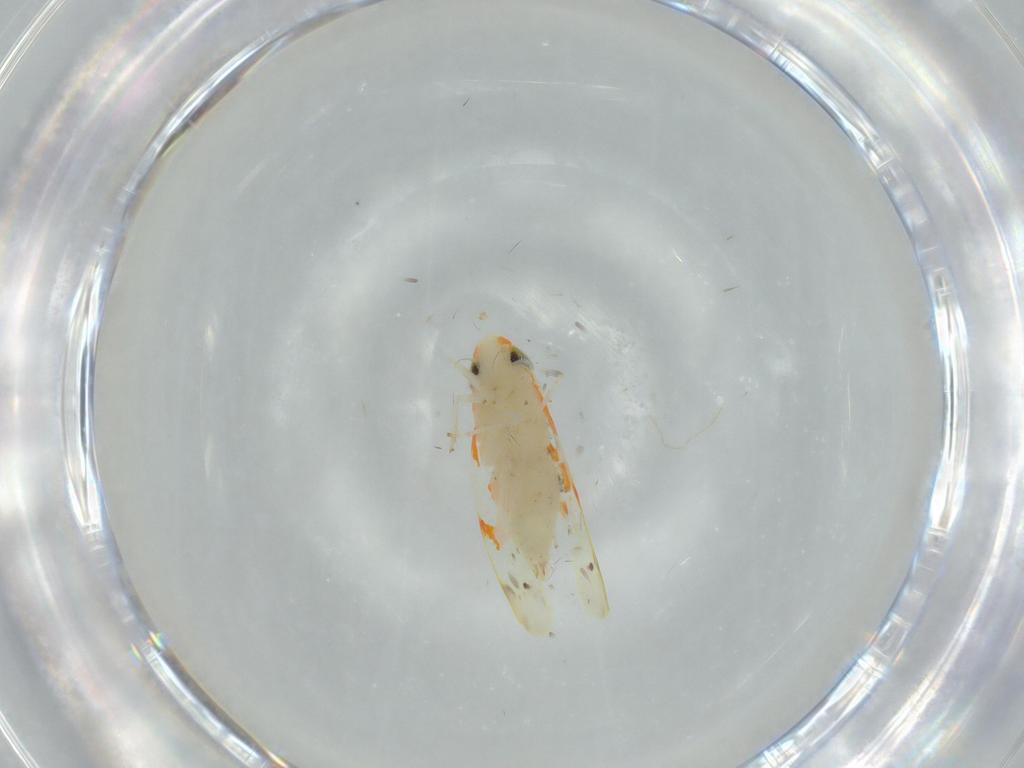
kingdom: Animalia
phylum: Arthropoda
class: Insecta
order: Hemiptera
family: Cicadellidae
